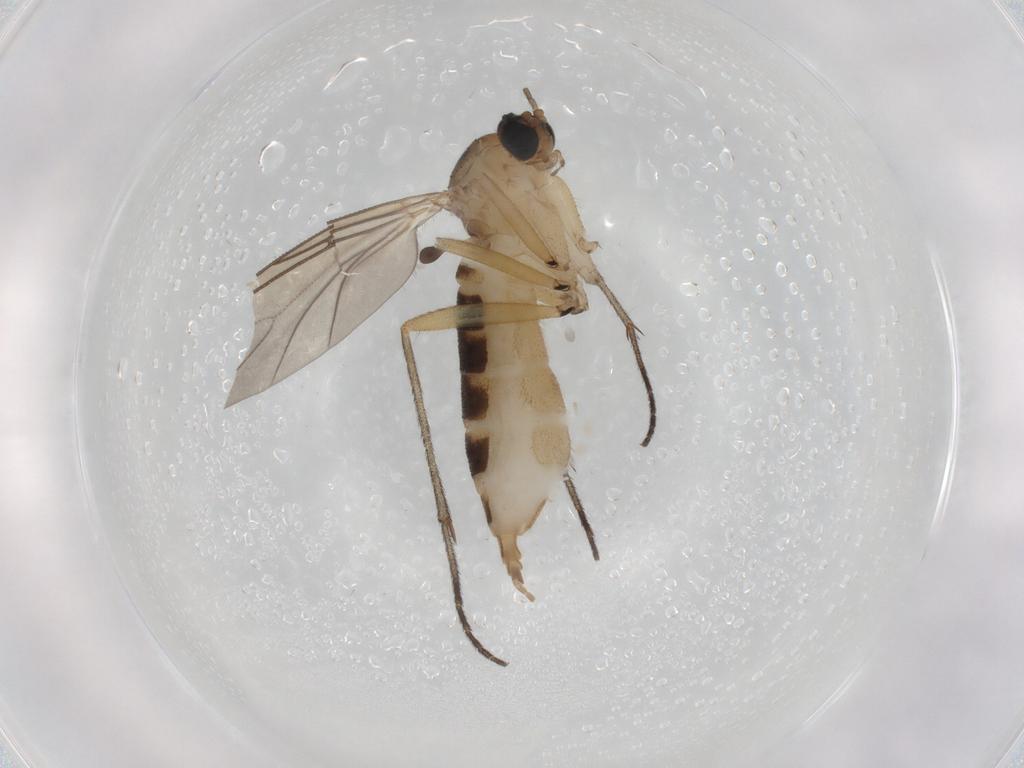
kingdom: Animalia
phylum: Arthropoda
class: Insecta
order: Diptera
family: Sciaridae
